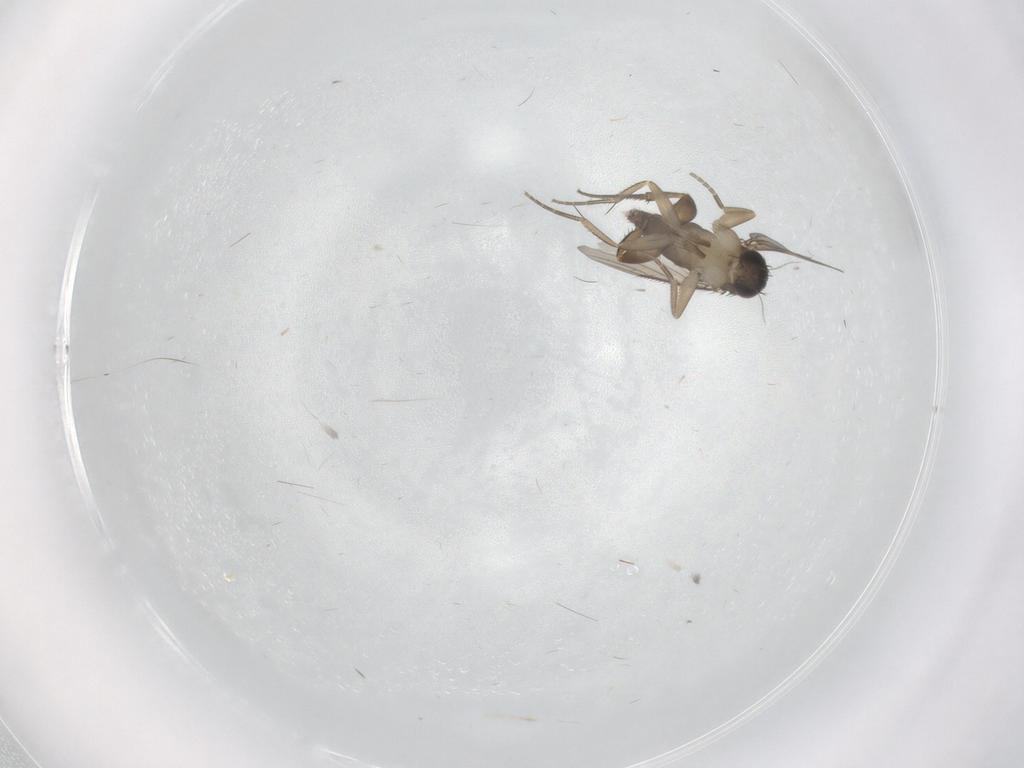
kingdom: Animalia
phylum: Arthropoda
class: Insecta
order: Diptera
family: Phoridae
